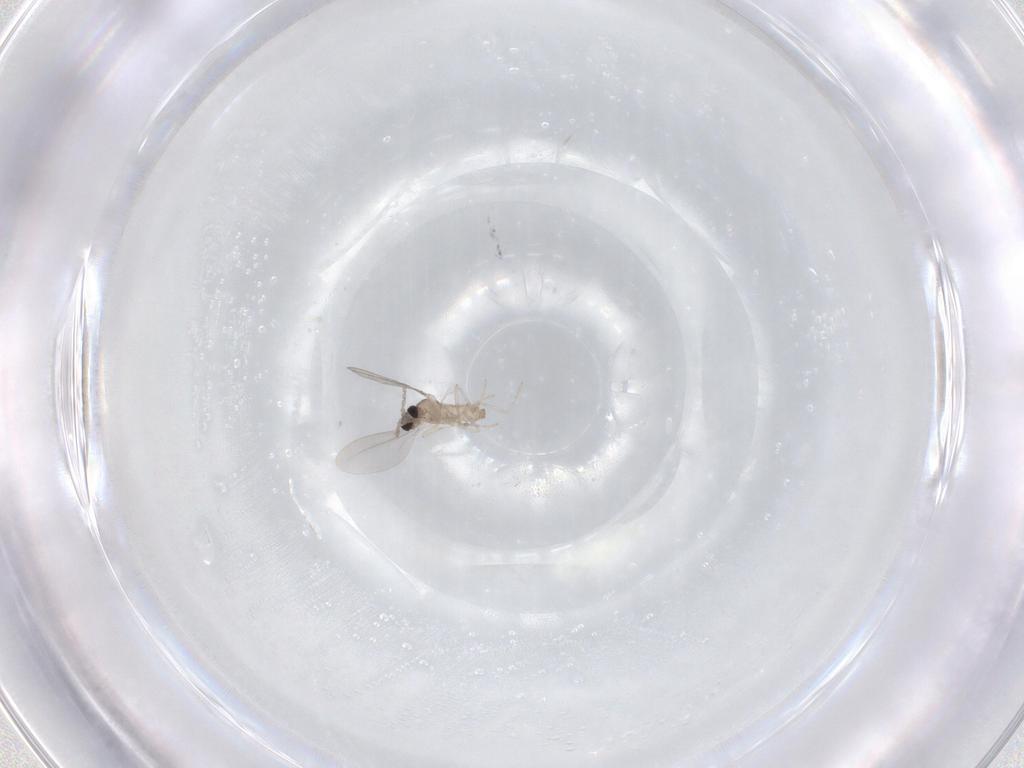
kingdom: Animalia
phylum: Arthropoda
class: Insecta
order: Diptera
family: Cecidomyiidae
